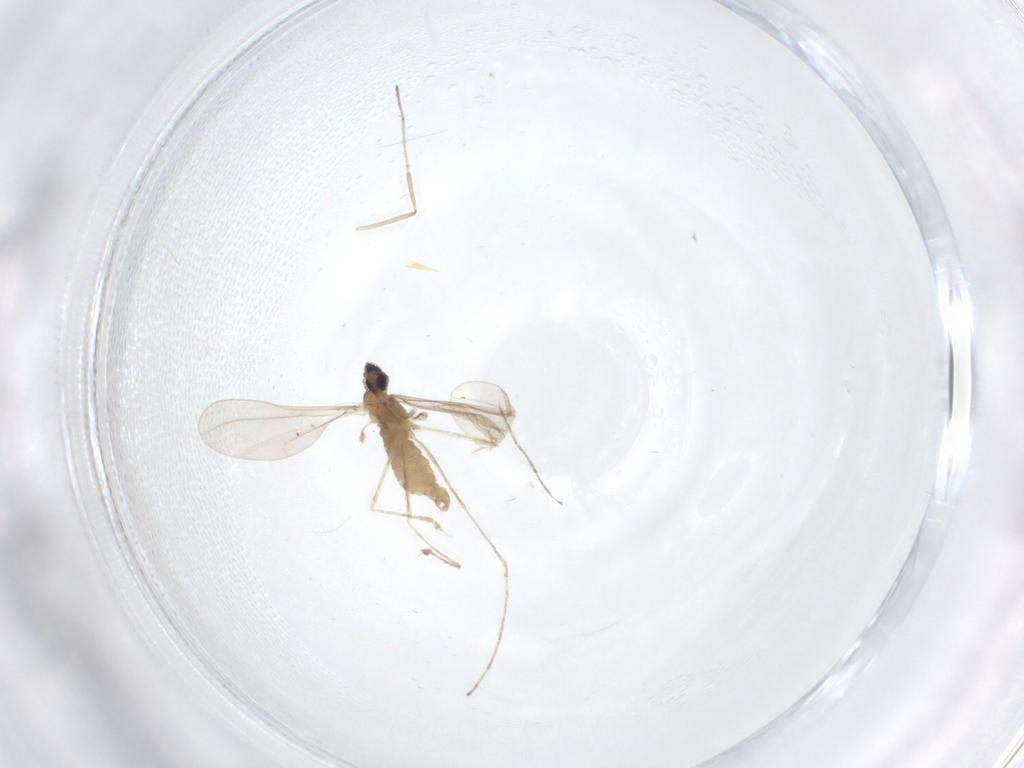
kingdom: Animalia
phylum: Arthropoda
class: Insecta
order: Diptera
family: Cecidomyiidae
